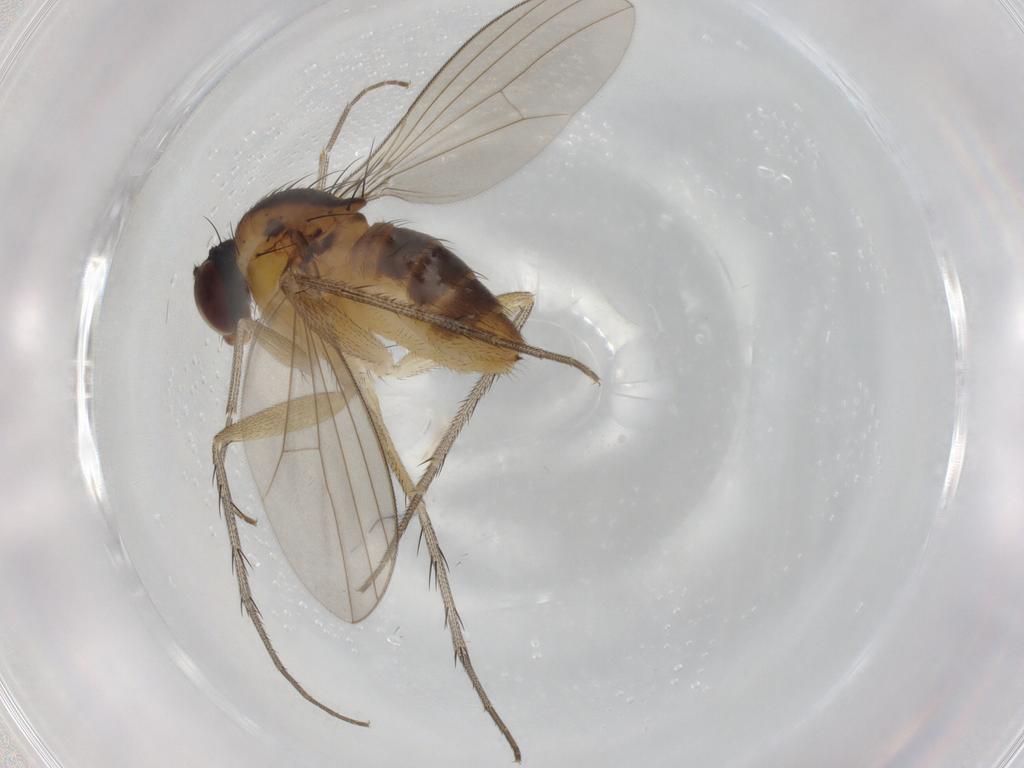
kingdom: Animalia
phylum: Arthropoda
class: Insecta
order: Diptera
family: Dolichopodidae
